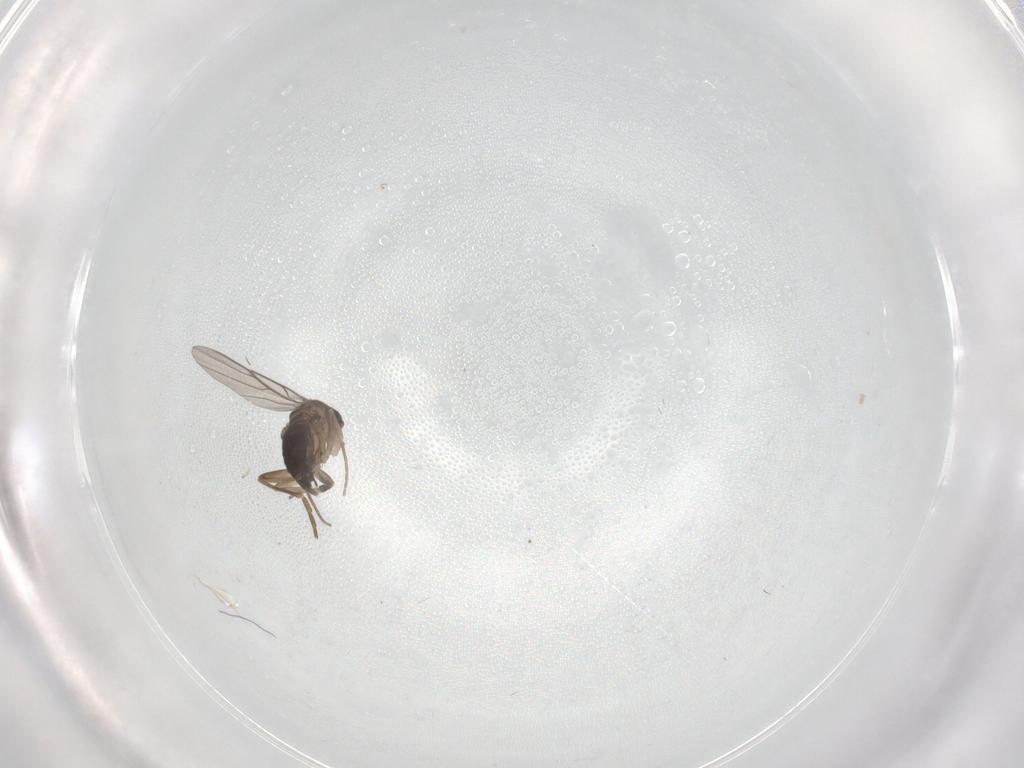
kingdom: Animalia
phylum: Arthropoda
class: Insecta
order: Diptera
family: Phoridae
